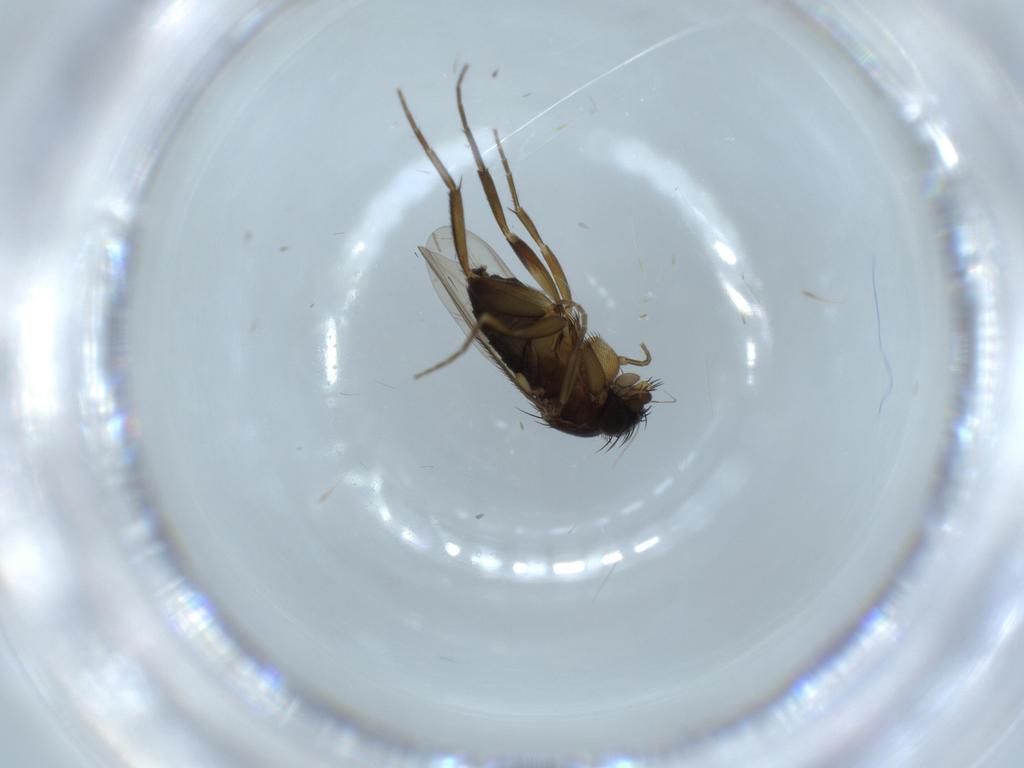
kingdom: Animalia
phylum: Arthropoda
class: Insecta
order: Diptera
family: Phoridae
